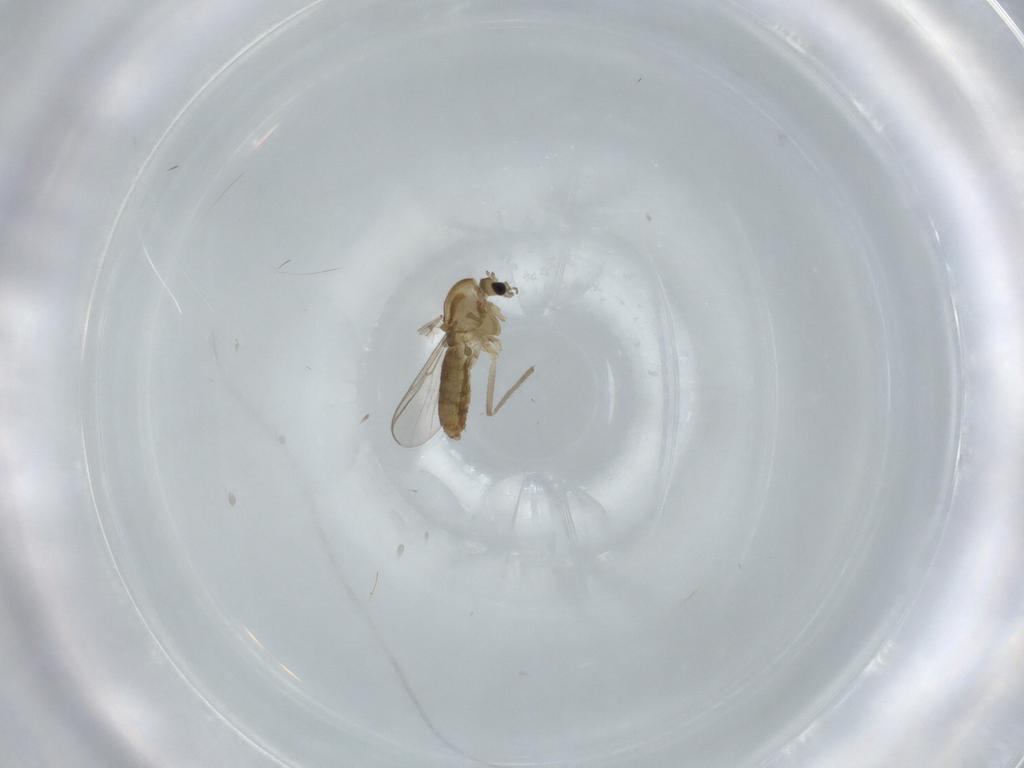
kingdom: Animalia
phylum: Arthropoda
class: Insecta
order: Diptera
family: Chironomidae
